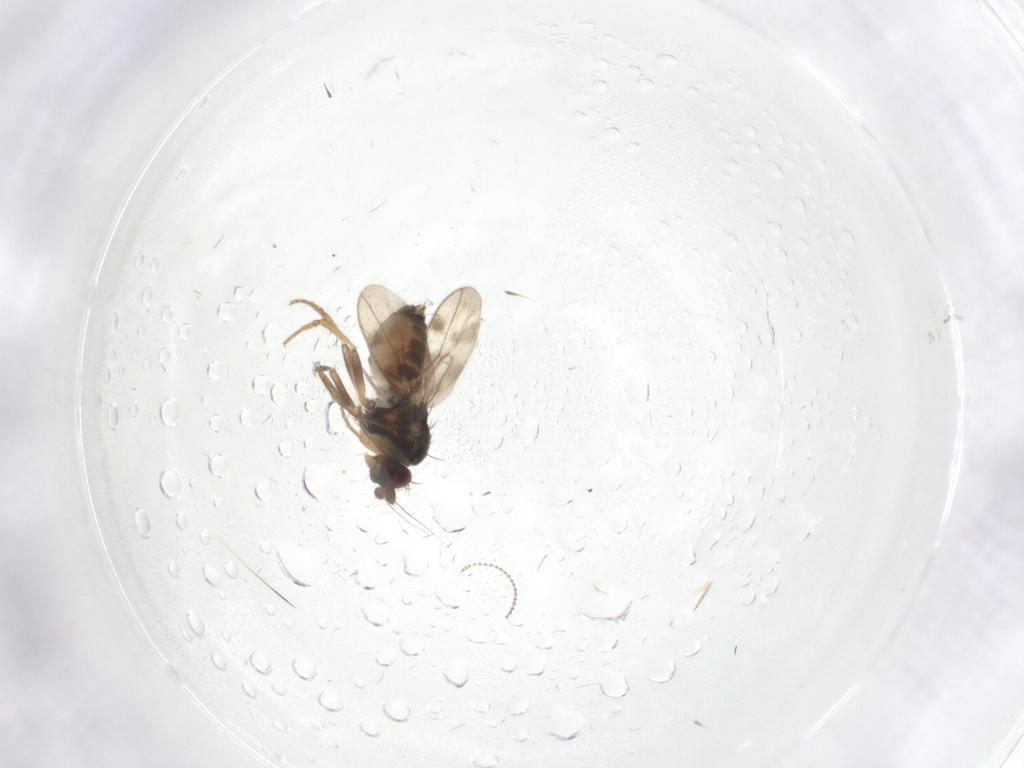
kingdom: Animalia
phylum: Arthropoda
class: Insecta
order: Diptera
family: Cecidomyiidae
